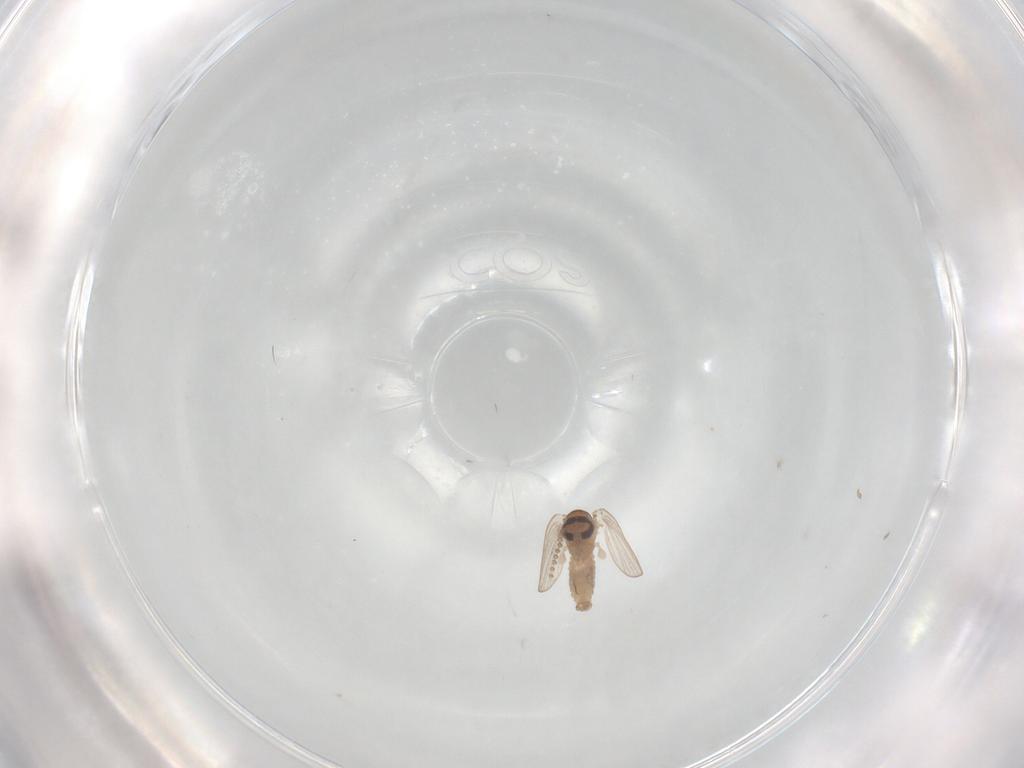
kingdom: Animalia
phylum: Arthropoda
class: Insecta
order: Diptera
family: Psychodidae
